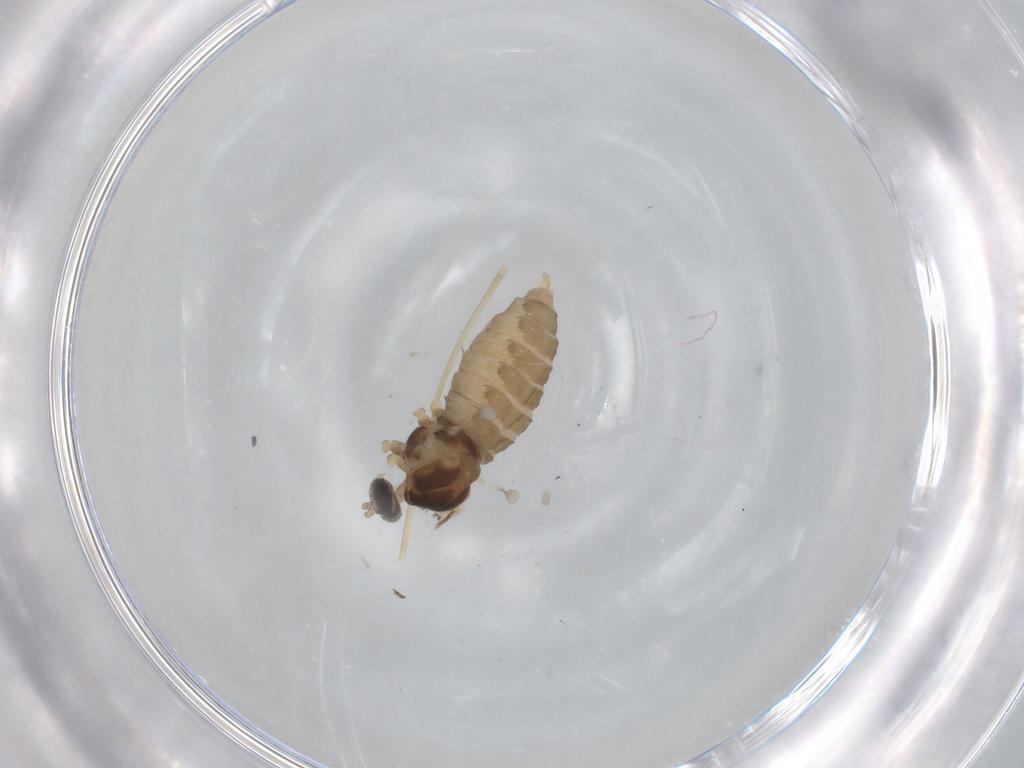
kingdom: Animalia
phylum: Arthropoda
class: Insecta
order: Diptera
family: Cecidomyiidae
